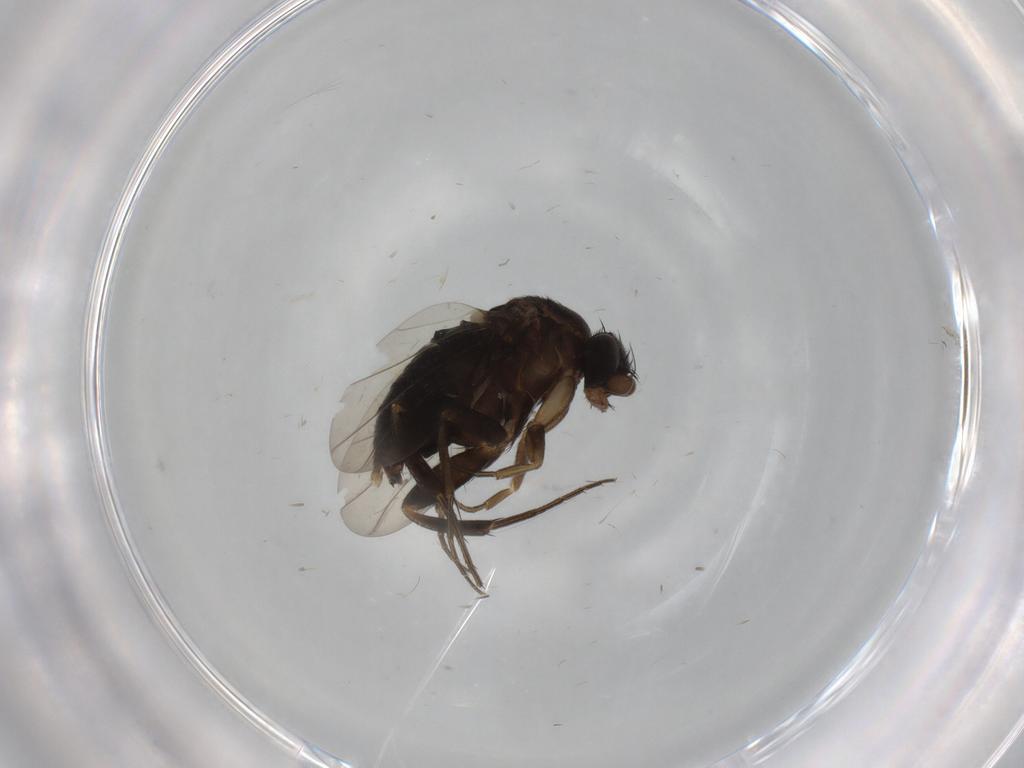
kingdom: Animalia
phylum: Arthropoda
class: Insecta
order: Diptera
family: Phoridae
